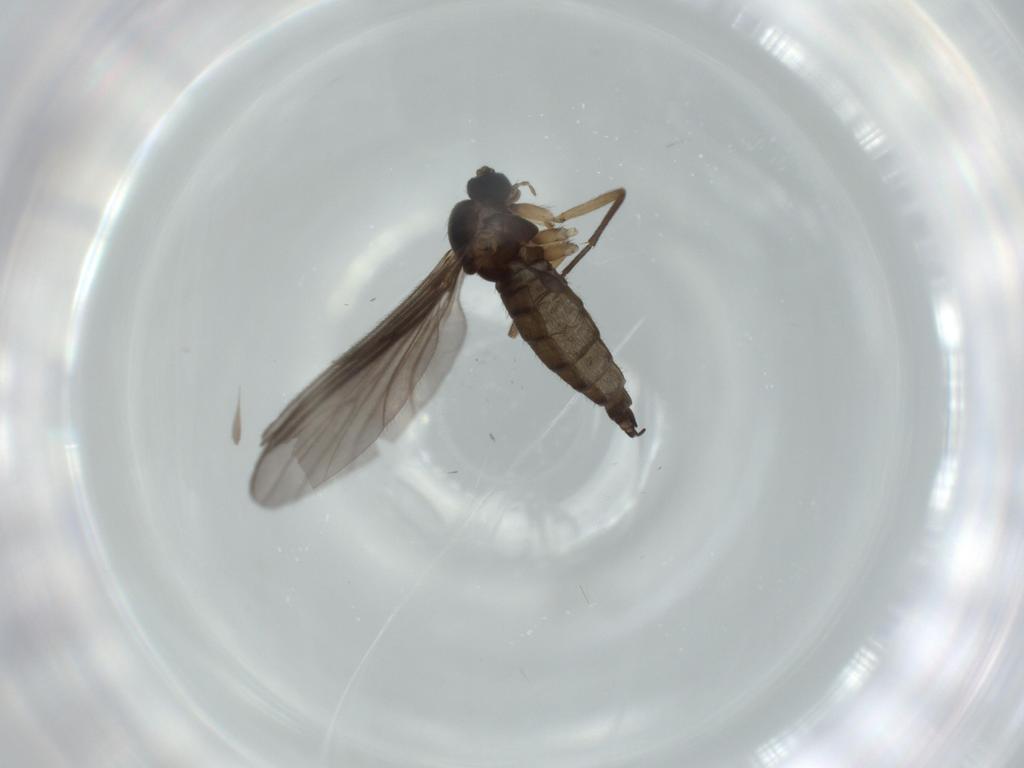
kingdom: Animalia
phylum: Arthropoda
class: Insecta
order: Diptera
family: Sciaridae
